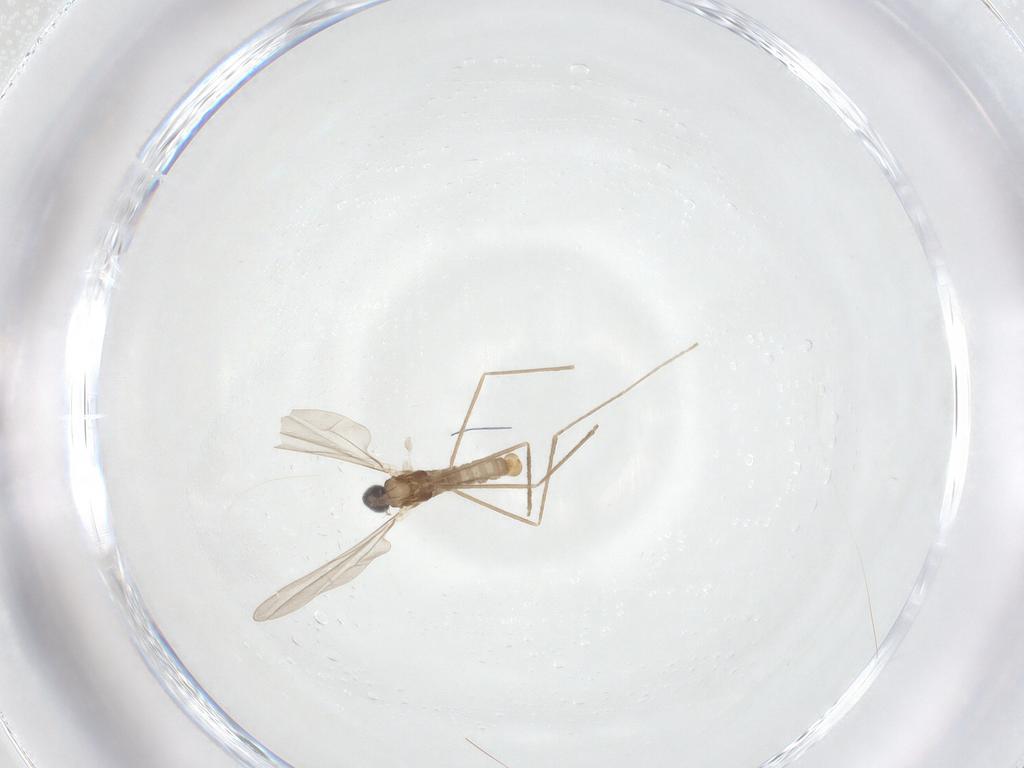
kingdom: Animalia
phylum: Arthropoda
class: Insecta
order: Diptera
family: Cecidomyiidae
